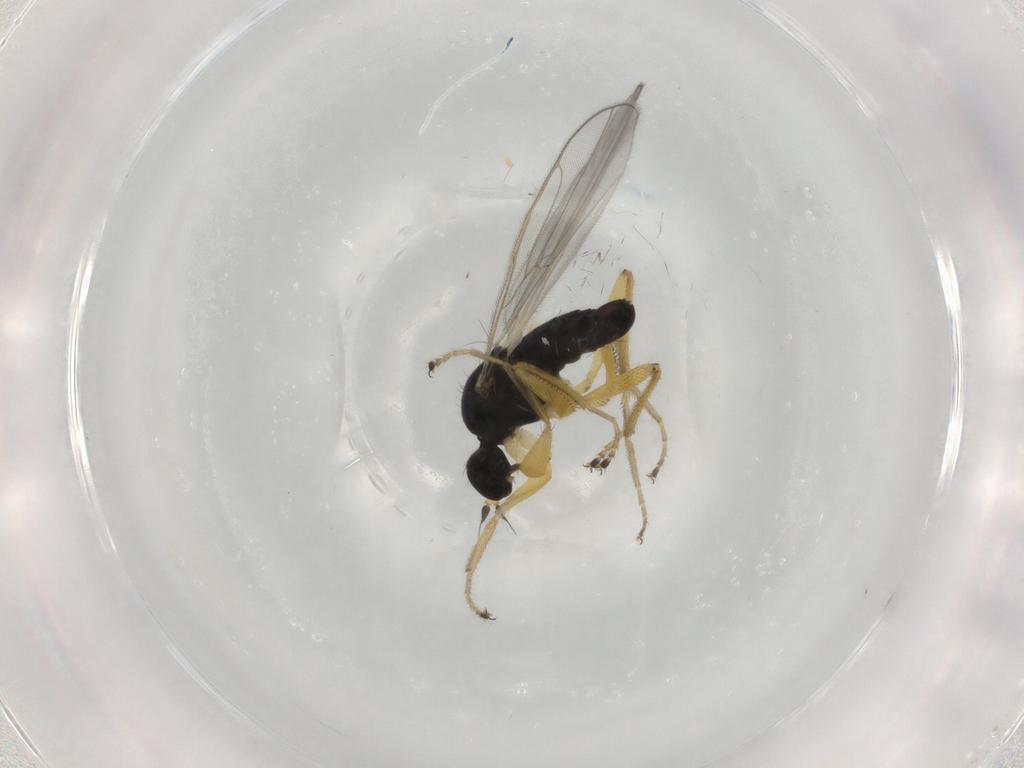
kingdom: Animalia
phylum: Arthropoda
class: Insecta
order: Diptera
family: Hybotidae
